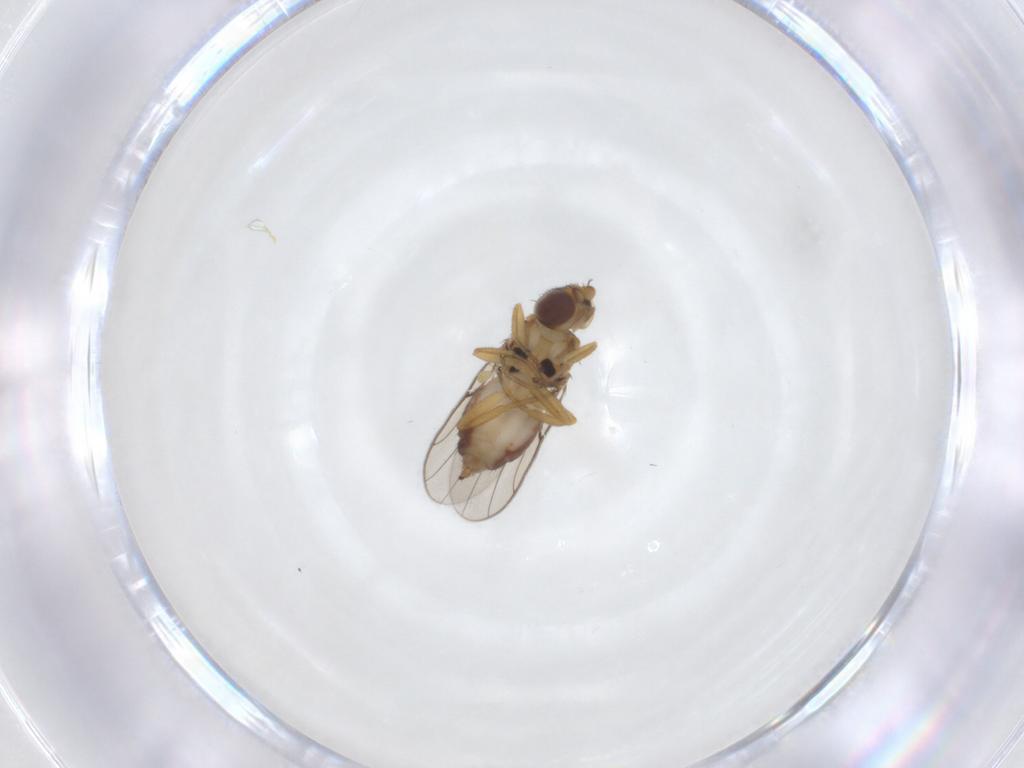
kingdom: Animalia
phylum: Arthropoda
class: Insecta
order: Diptera
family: Chloropidae
